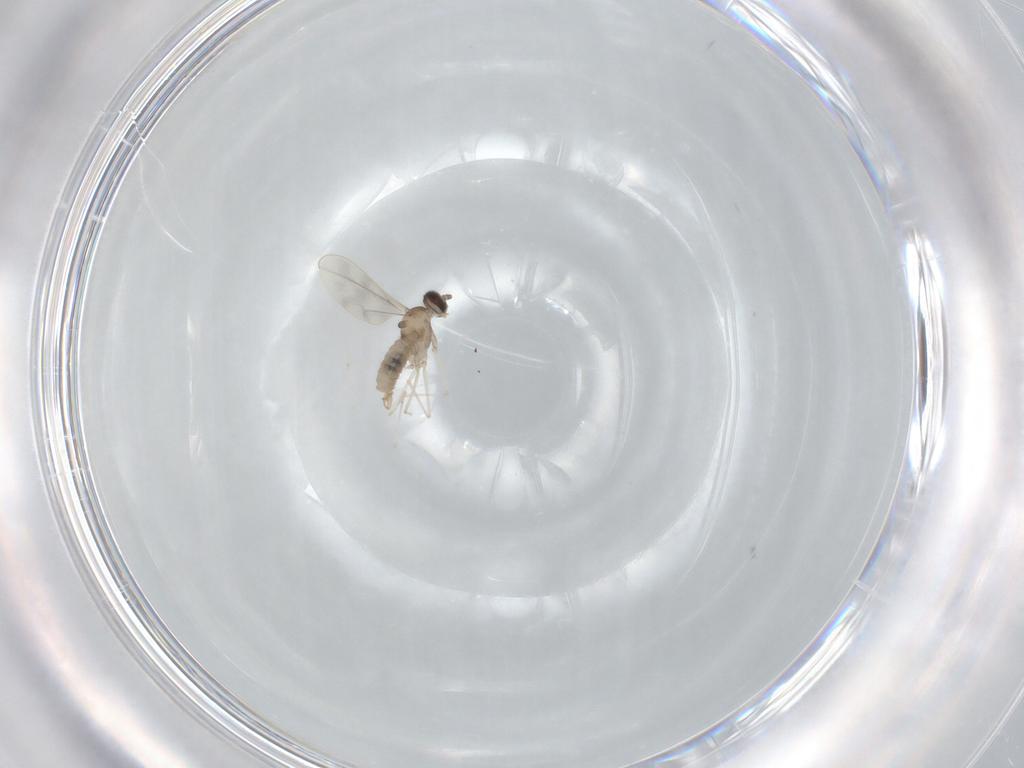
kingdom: Animalia
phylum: Arthropoda
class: Insecta
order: Diptera
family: Cecidomyiidae
